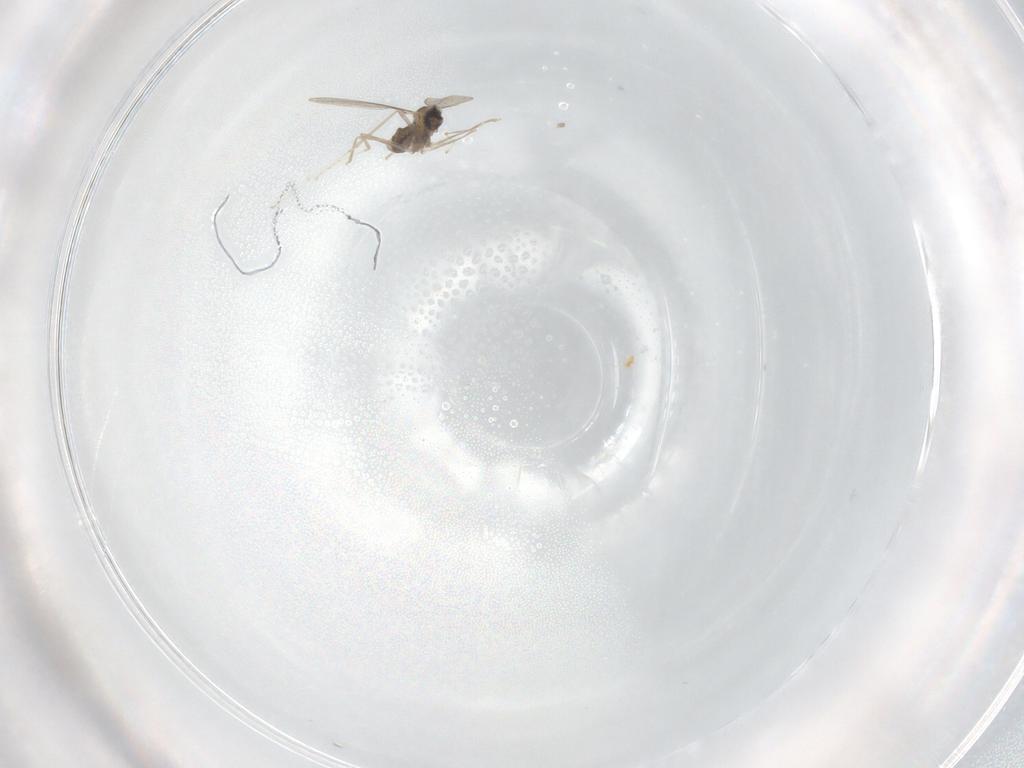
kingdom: Animalia
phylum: Arthropoda
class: Insecta
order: Diptera
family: Cecidomyiidae
